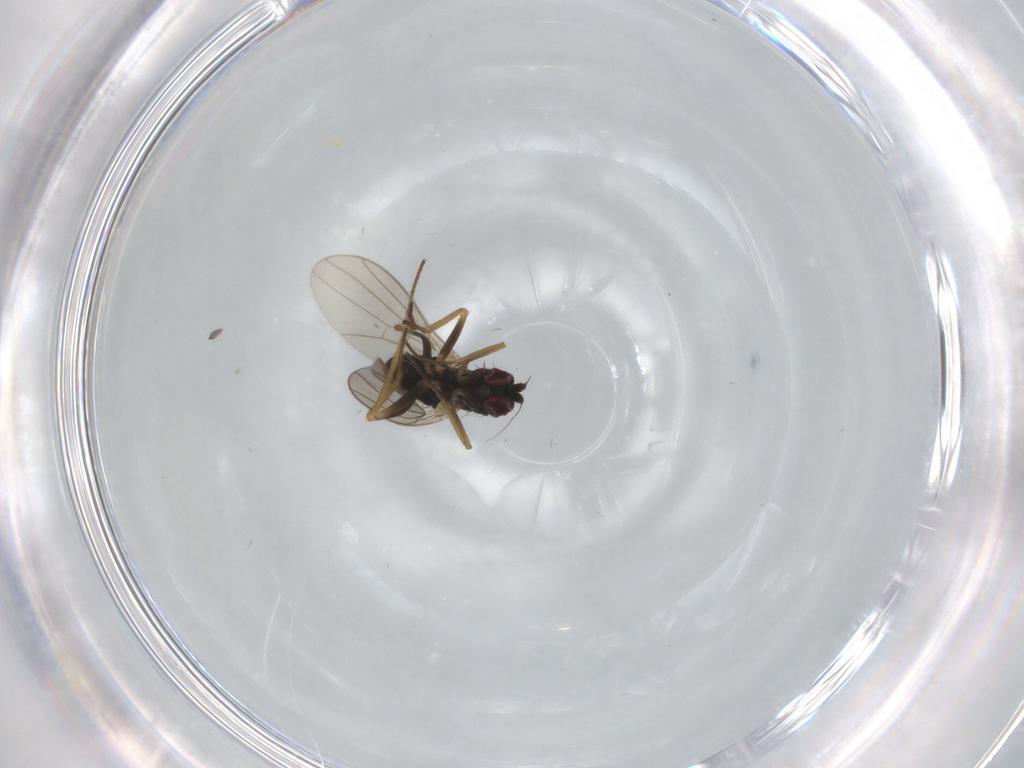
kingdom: Animalia
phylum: Arthropoda
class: Insecta
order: Diptera
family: Dolichopodidae
